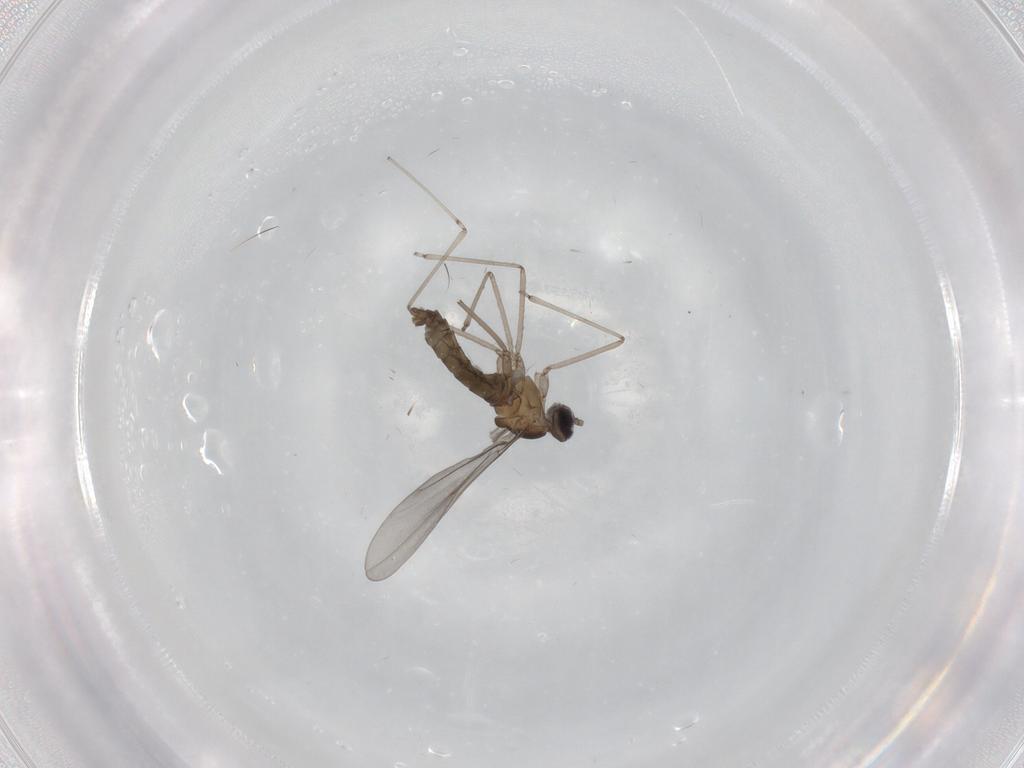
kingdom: Animalia
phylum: Arthropoda
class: Insecta
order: Diptera
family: Cecidomyiidae
